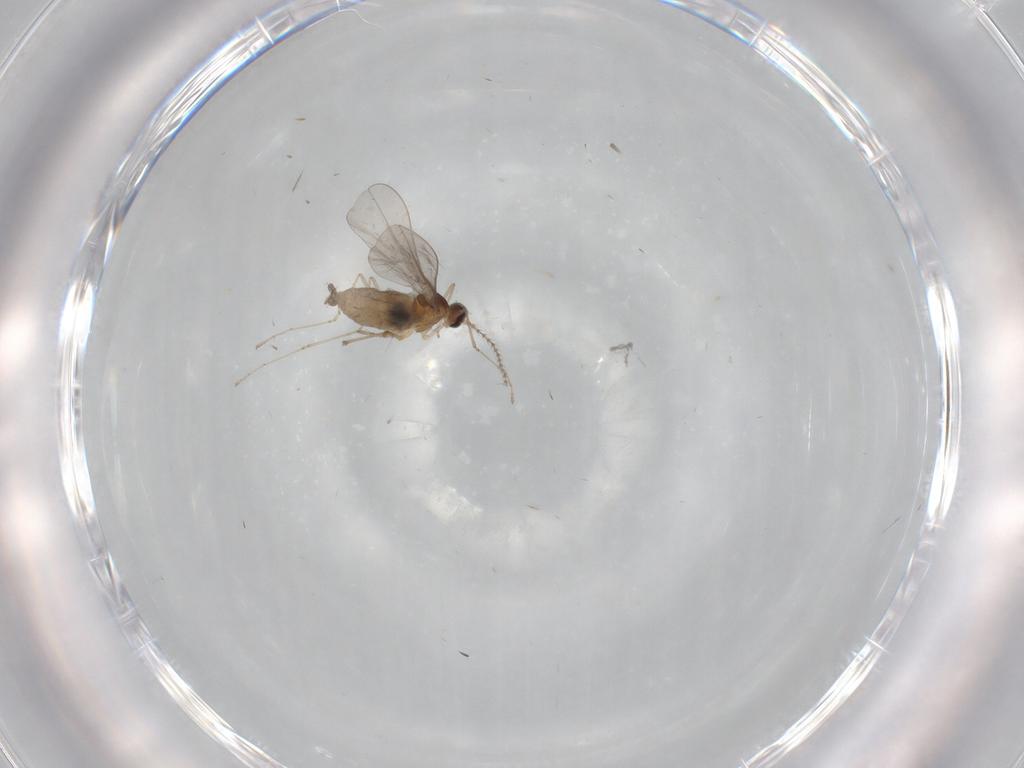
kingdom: Animalia
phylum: Arthropoda
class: Insecta
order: Diptera
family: Cecidomyiidae
